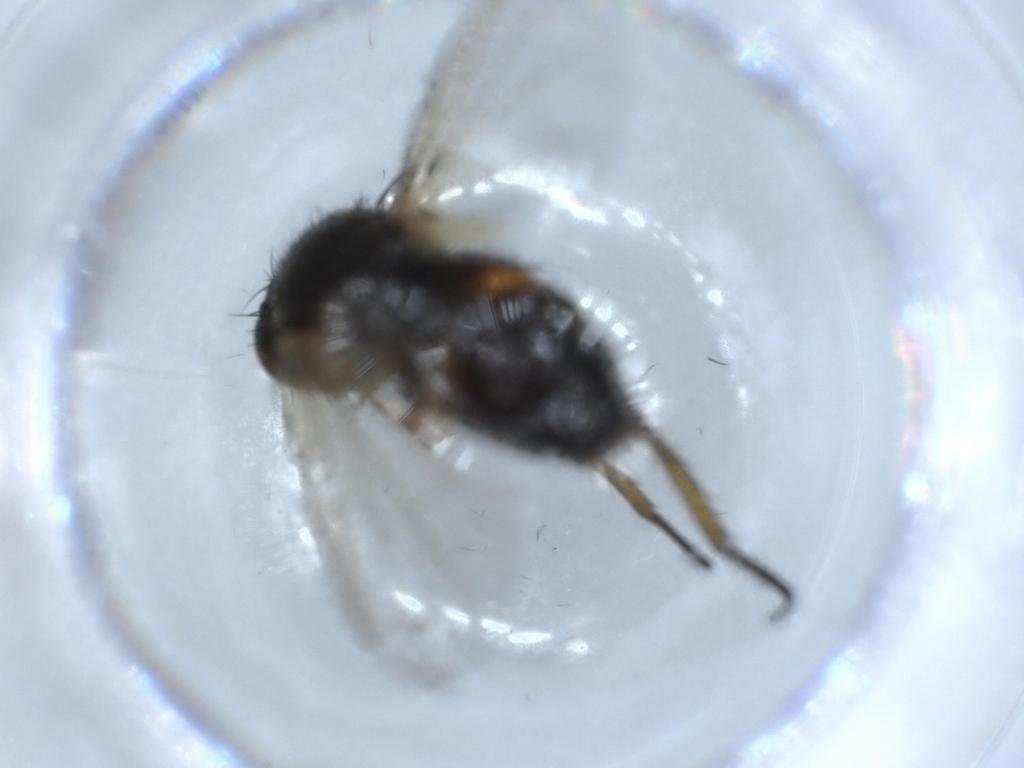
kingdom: Animalia
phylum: Arthropoda
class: Insecta
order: Diptera
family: Tachinidae
